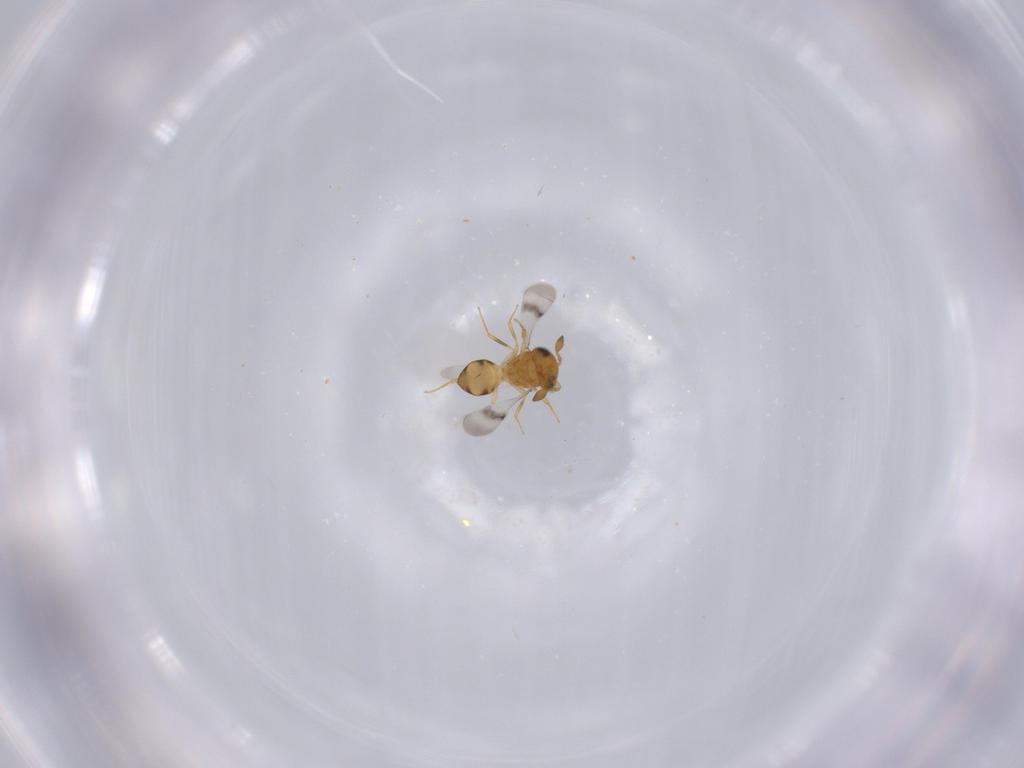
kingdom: Animalia
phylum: Arthropoda
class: Insecta
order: Hymenoptera
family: Scelionidae
